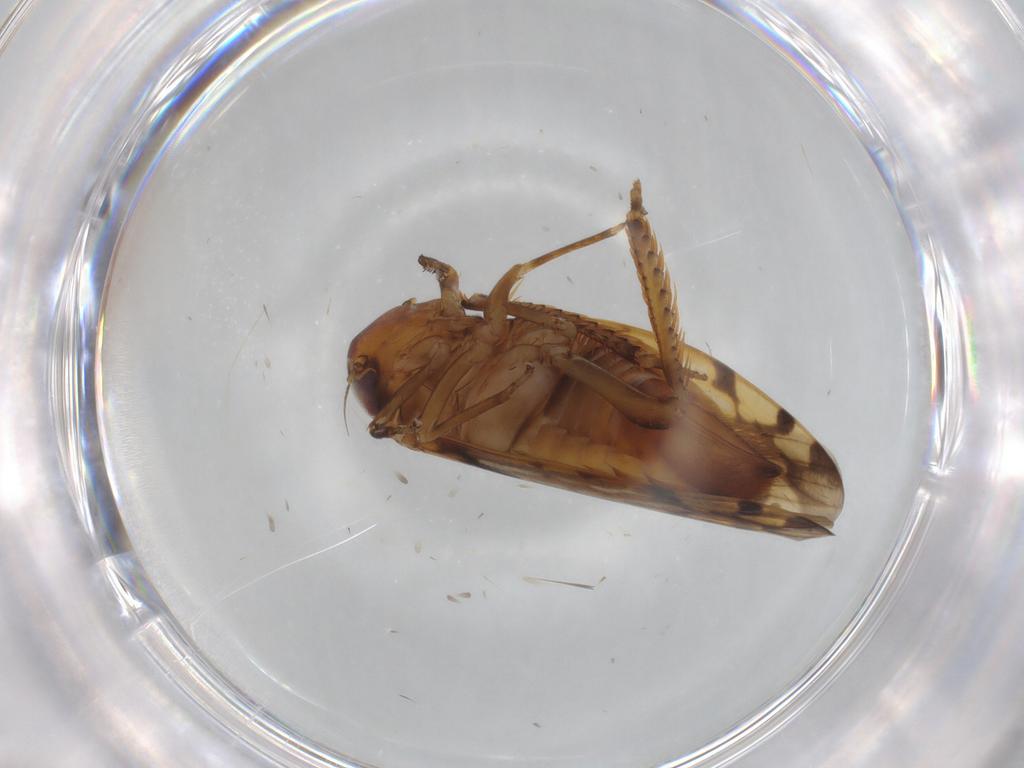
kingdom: Animalia
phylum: Arthropoda
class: Insecta
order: Hemiptera
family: Cicadellidae
